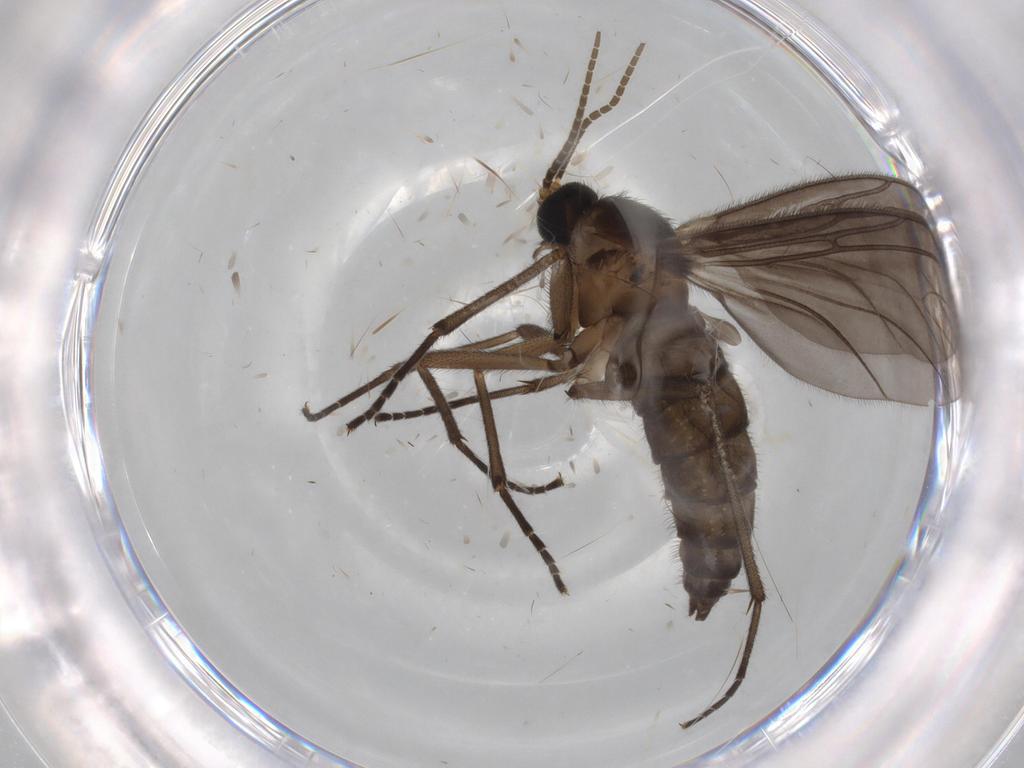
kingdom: Animalia
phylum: Arthropoda
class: Insecta
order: Diptera
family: Sciaridae
